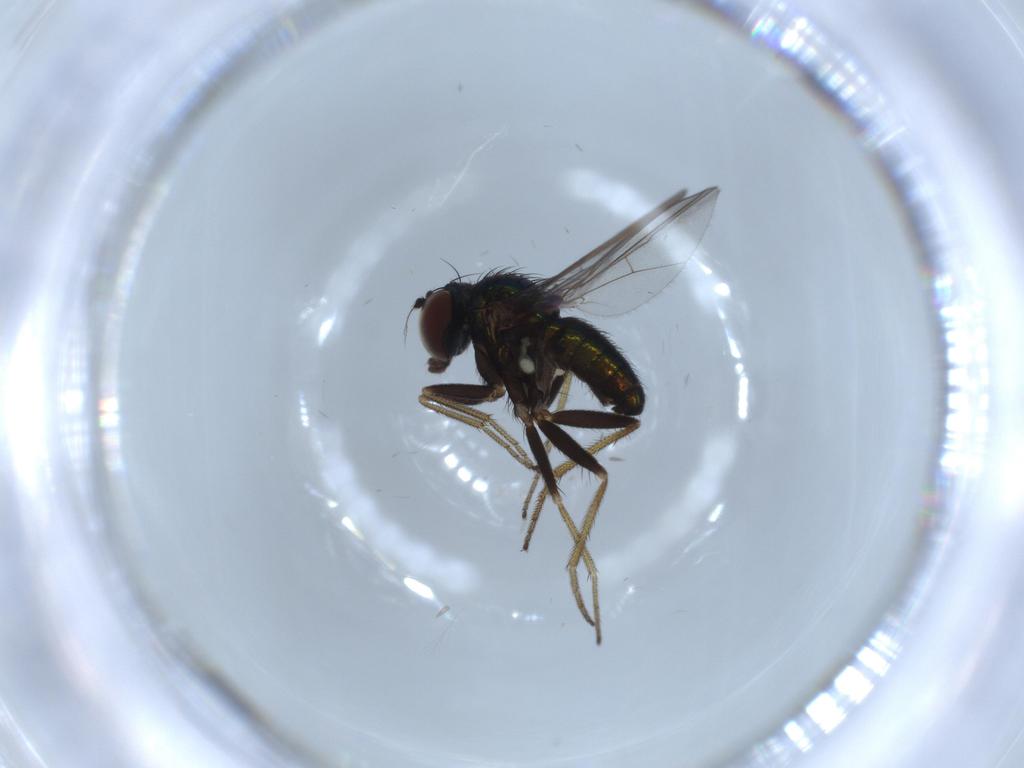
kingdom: Animalia
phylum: Arthropoda
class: Insecta
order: Diptera
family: Dolichopodidae
